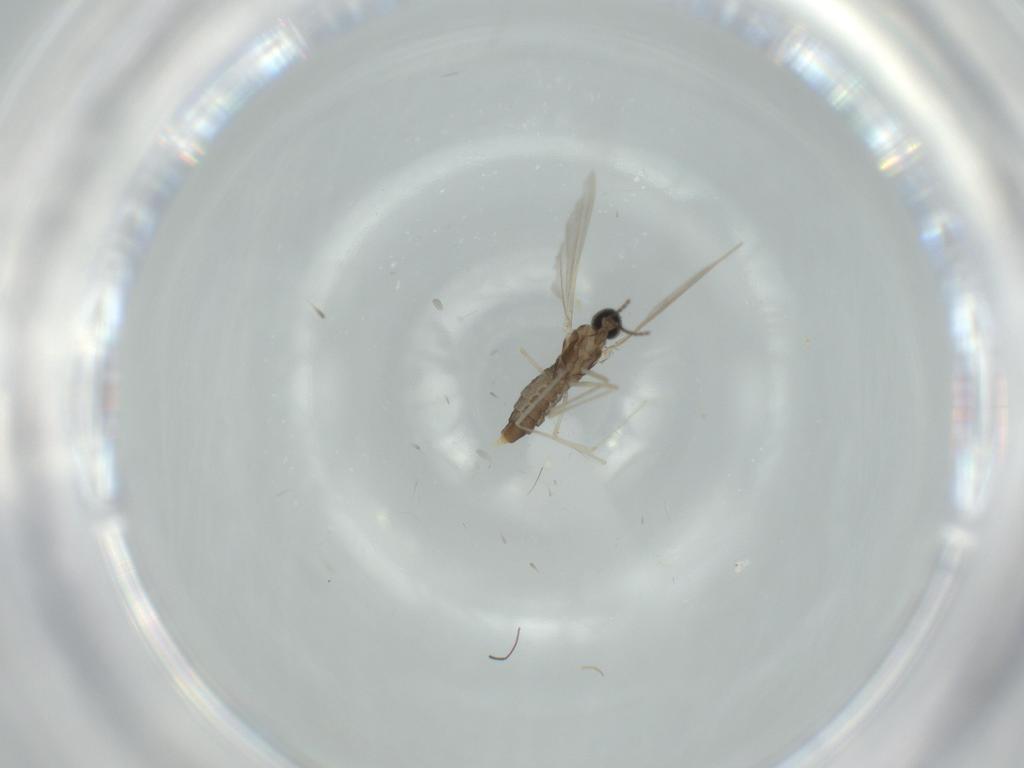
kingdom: Animalia
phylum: Arthropoda
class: Insecta
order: Diptera
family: Cecidomyiidae
